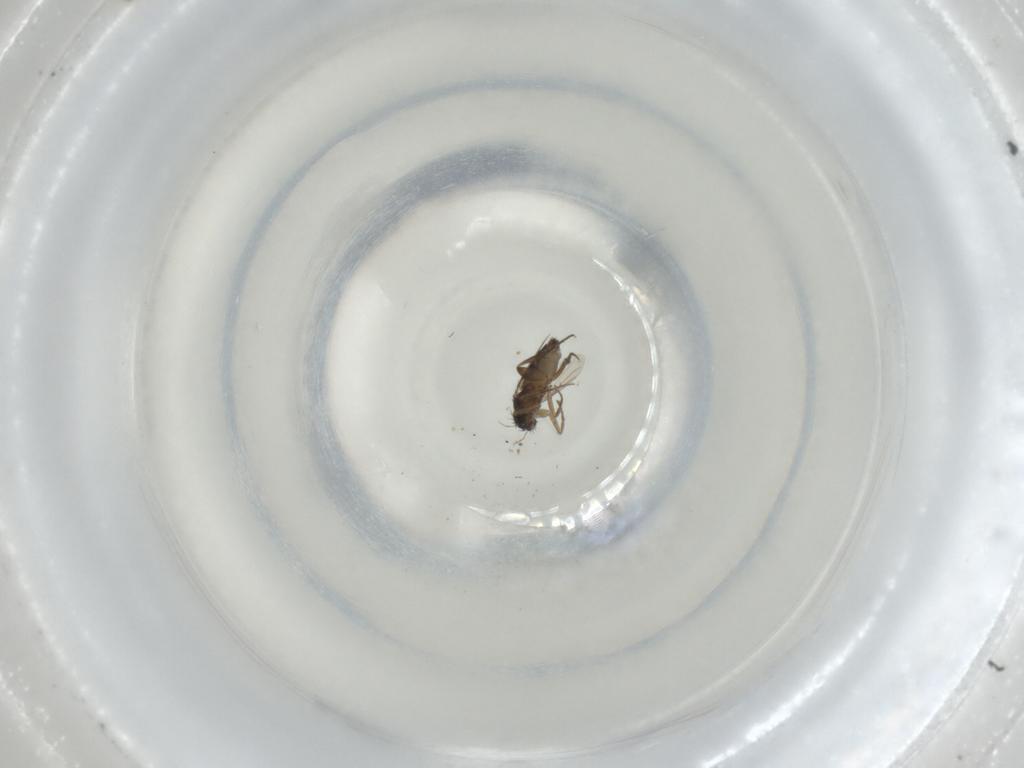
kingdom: Animalia
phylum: Arthropoda
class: Insecta
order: Diptera
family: Phoridae
